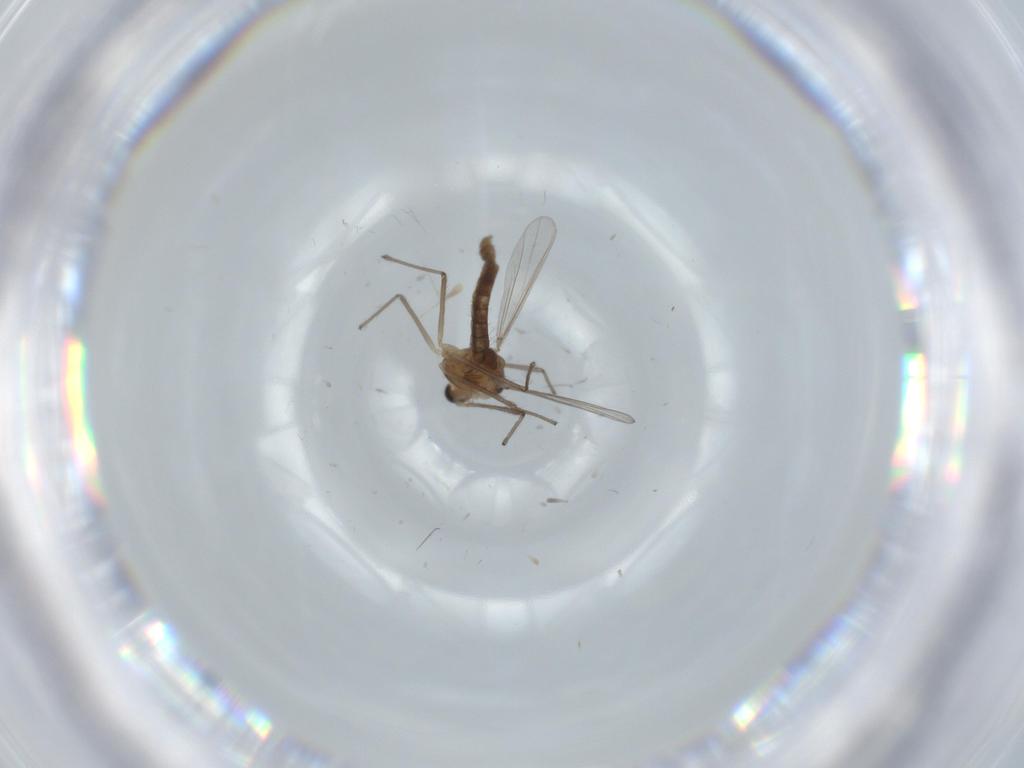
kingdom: Animalia
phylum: Arthropoda
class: Insecta
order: Diptera
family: Chironomidae
